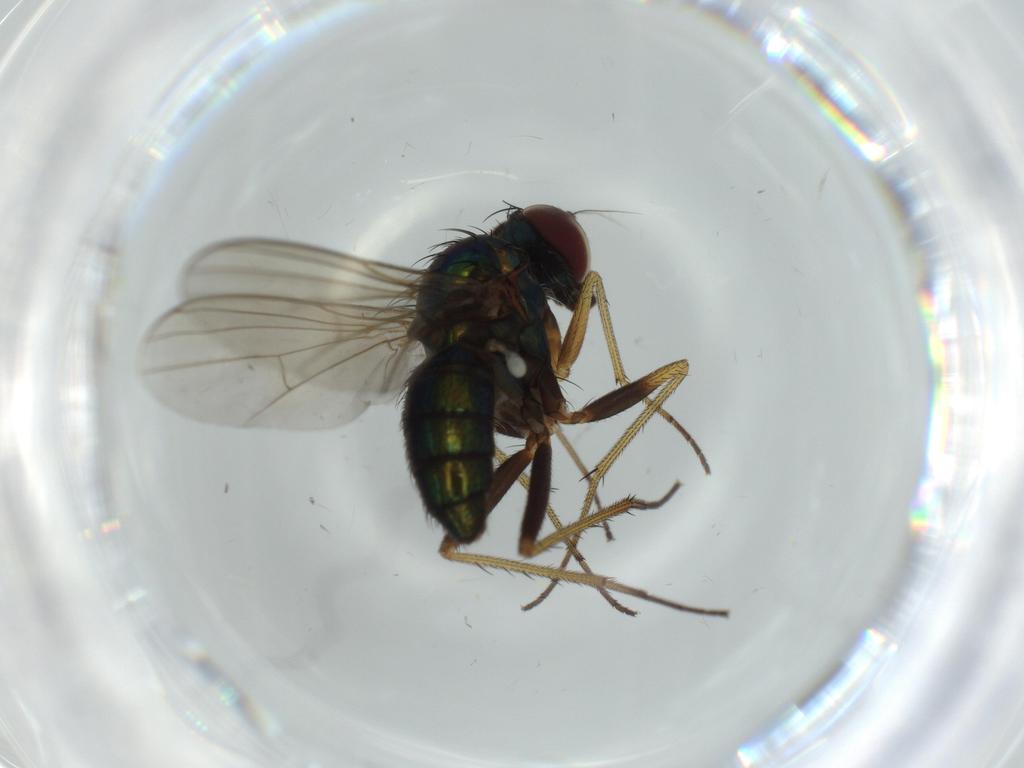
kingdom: Animalia
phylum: Arthropoda
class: Insecta
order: Diptera
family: Dolichopodidae
